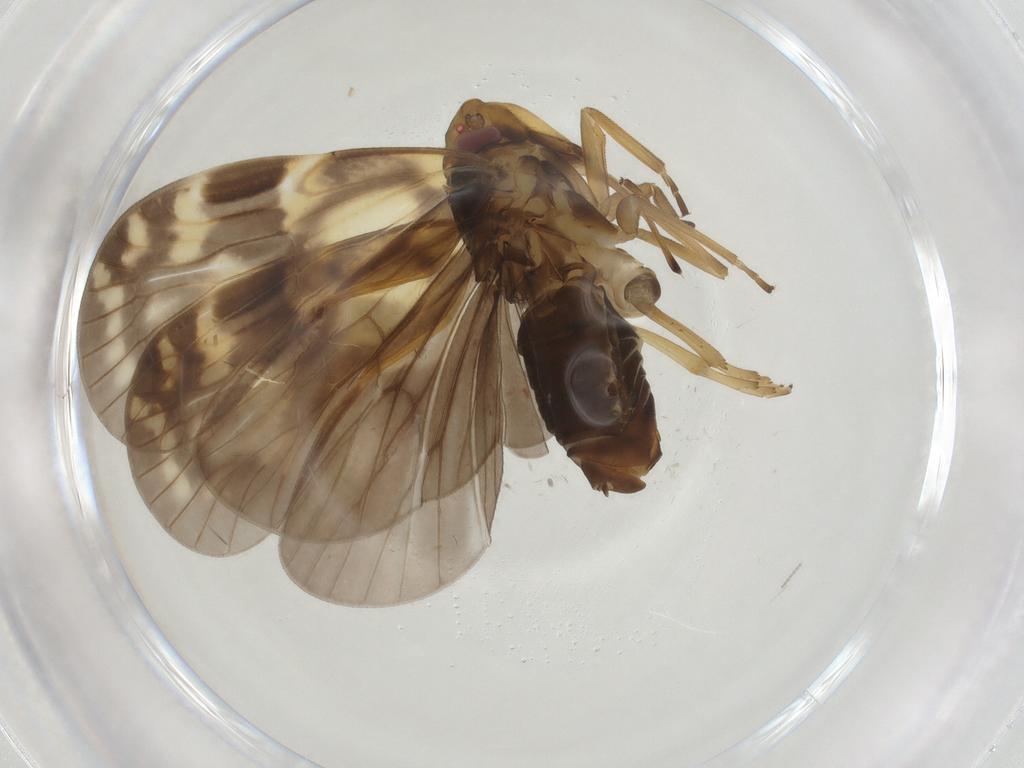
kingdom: Animalia
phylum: Arthropoda
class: Insecta
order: Hemiptera
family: Cixiidae
